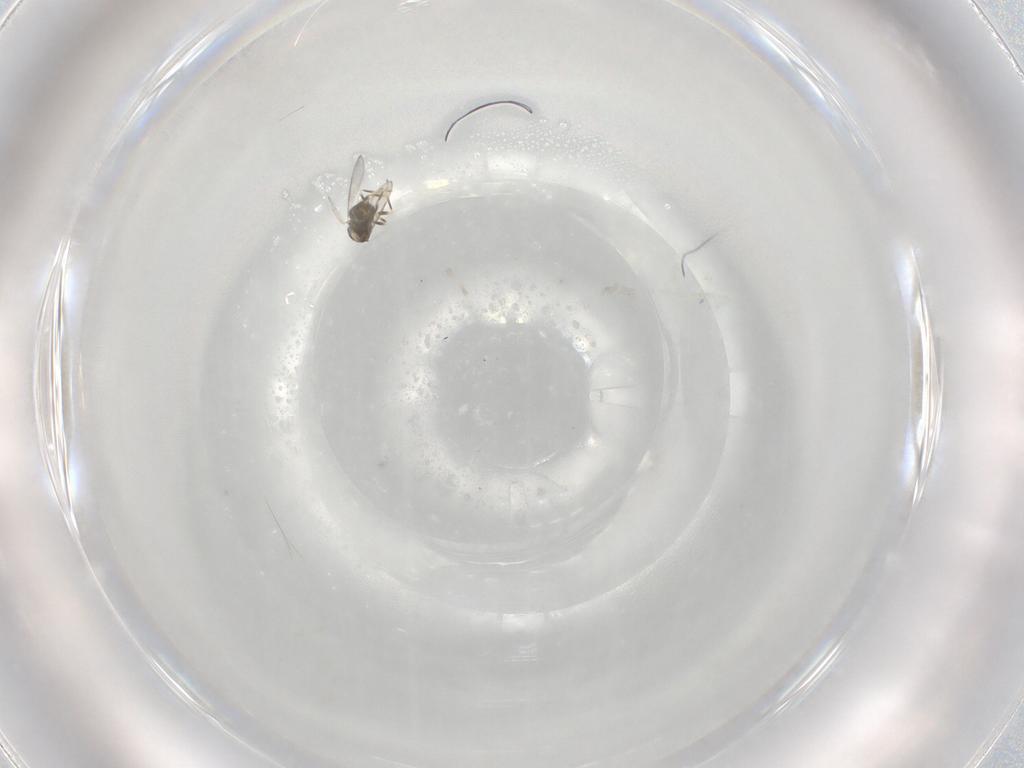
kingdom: Animalia
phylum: Arthropoda
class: Insecta
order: Hymenoptera
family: Aphelinidae
